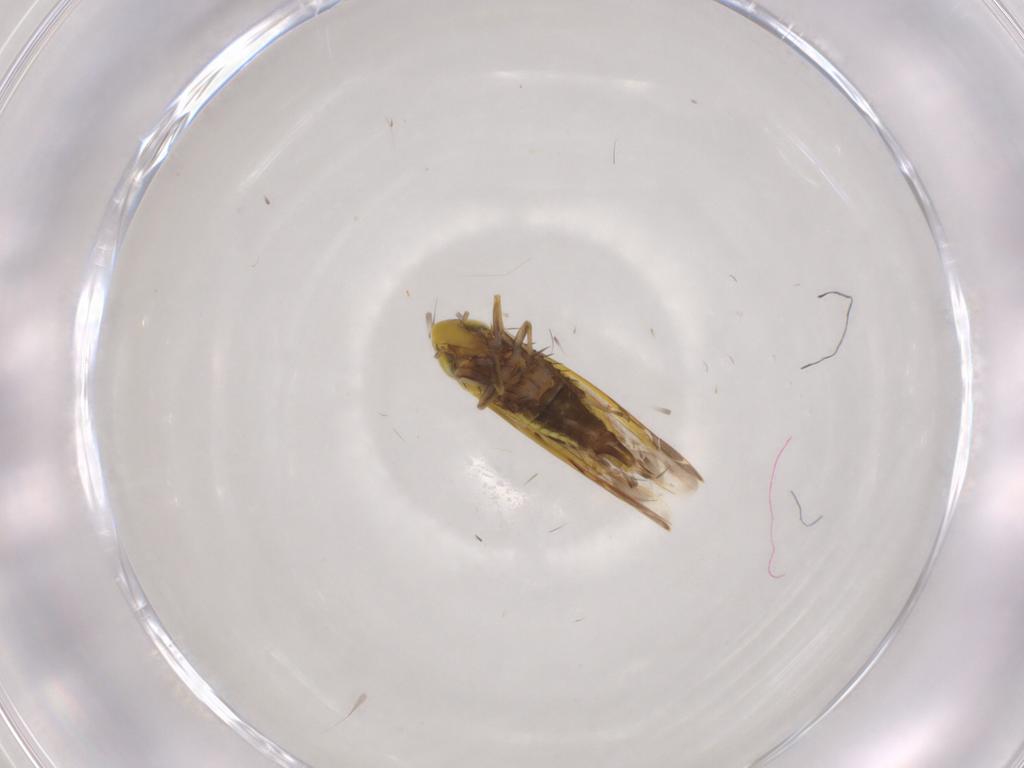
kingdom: Animalia
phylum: Arthropoda
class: Insecta
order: Hemiptera
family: Cicadellidae
